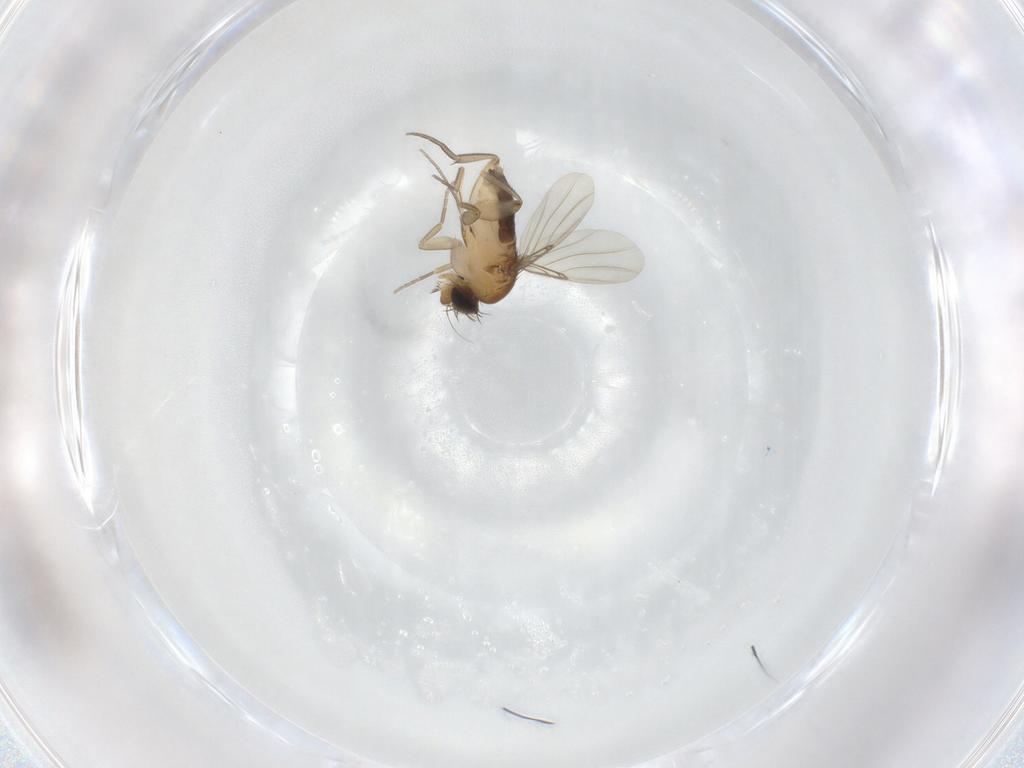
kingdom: Animalia
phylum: Arthropoda
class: Insecta
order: Diptera
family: Phoridae
